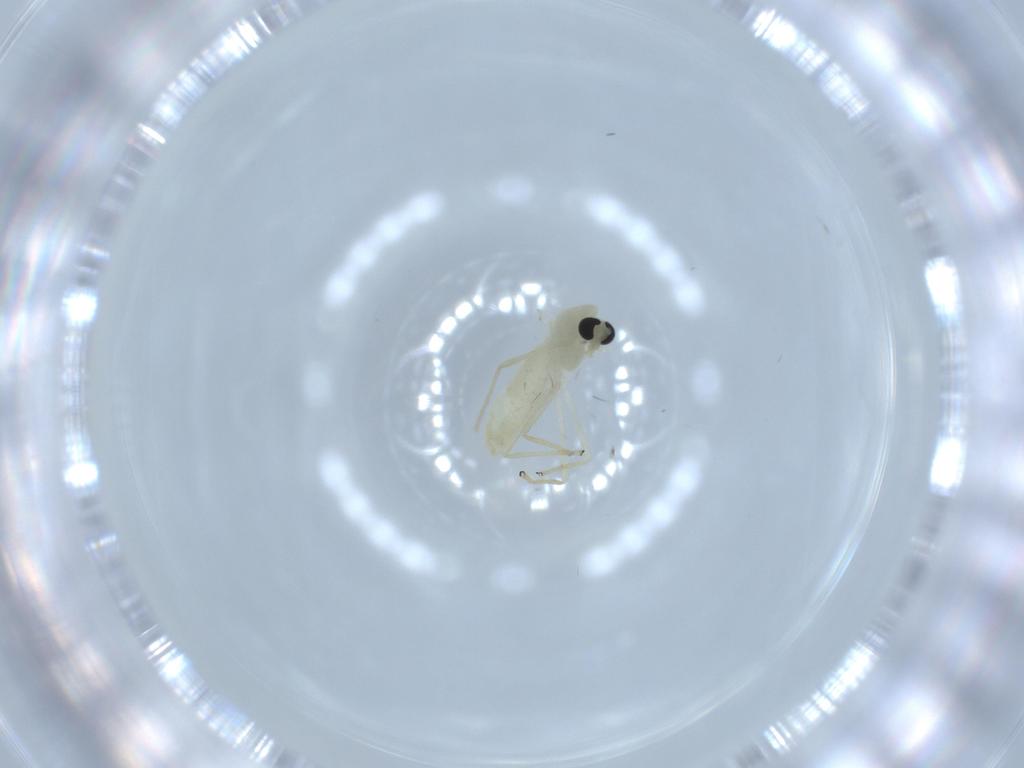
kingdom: Animalia
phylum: Arthropoda
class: Insecta
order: Diptera
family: Chironomidae
